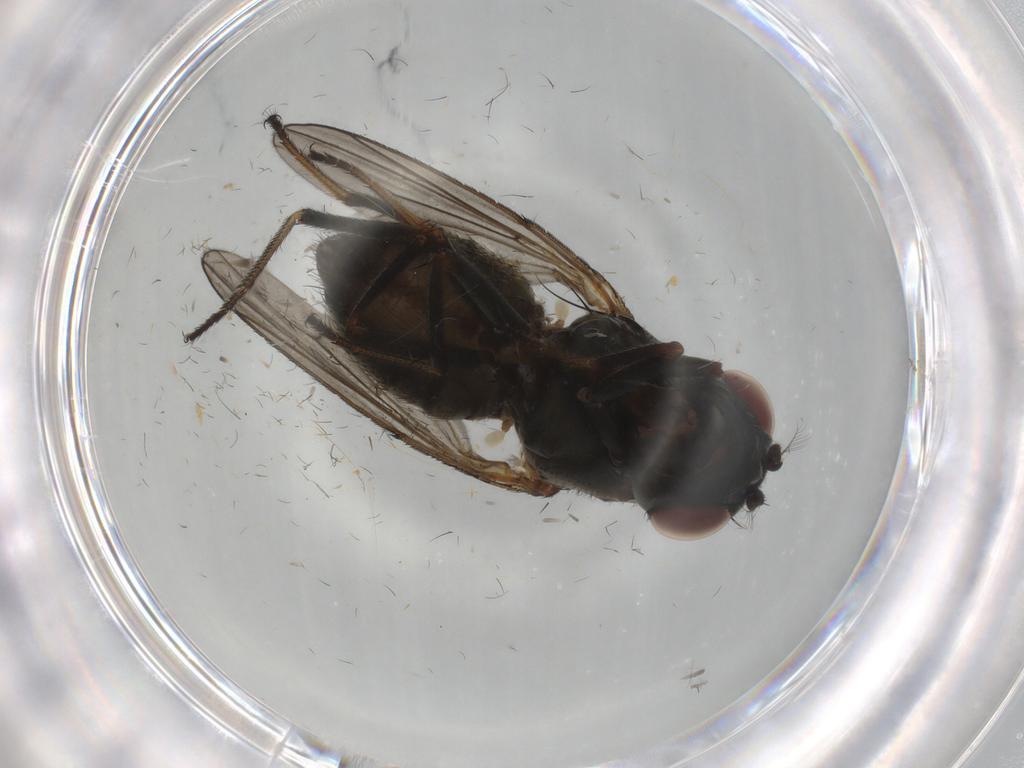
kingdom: Animalia
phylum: Arthropoda
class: Insecta
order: Diptera
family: Ephydridae
